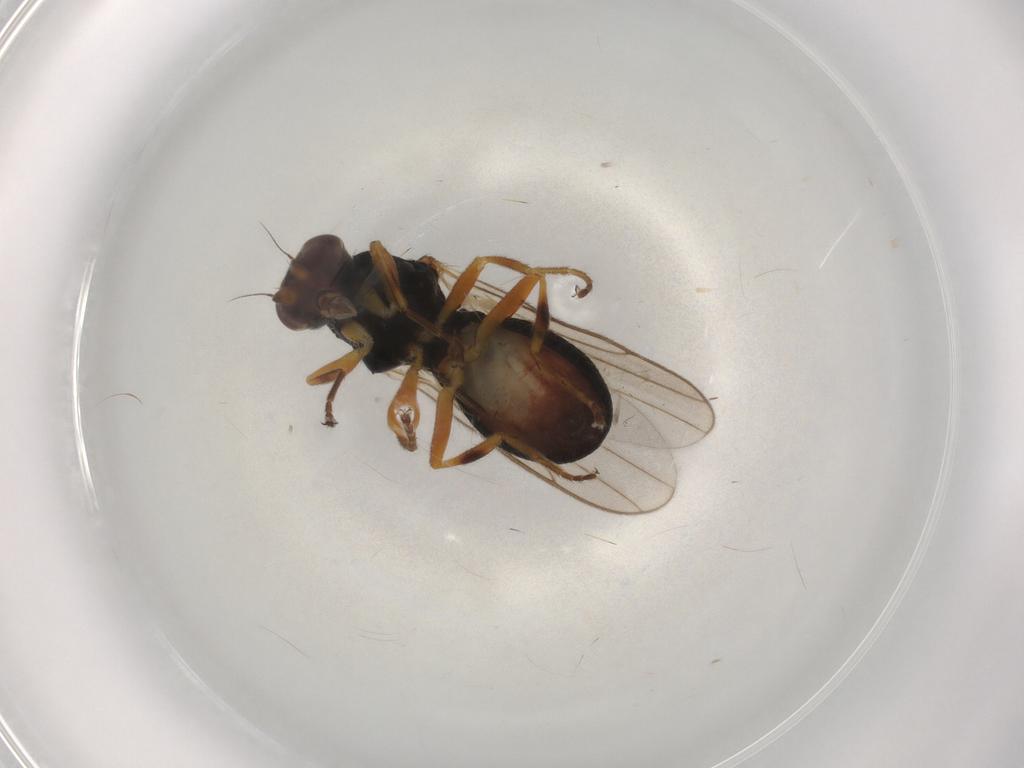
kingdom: Animalia
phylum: Arthropoda
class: Insecta
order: Diptera
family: Chloropidae
